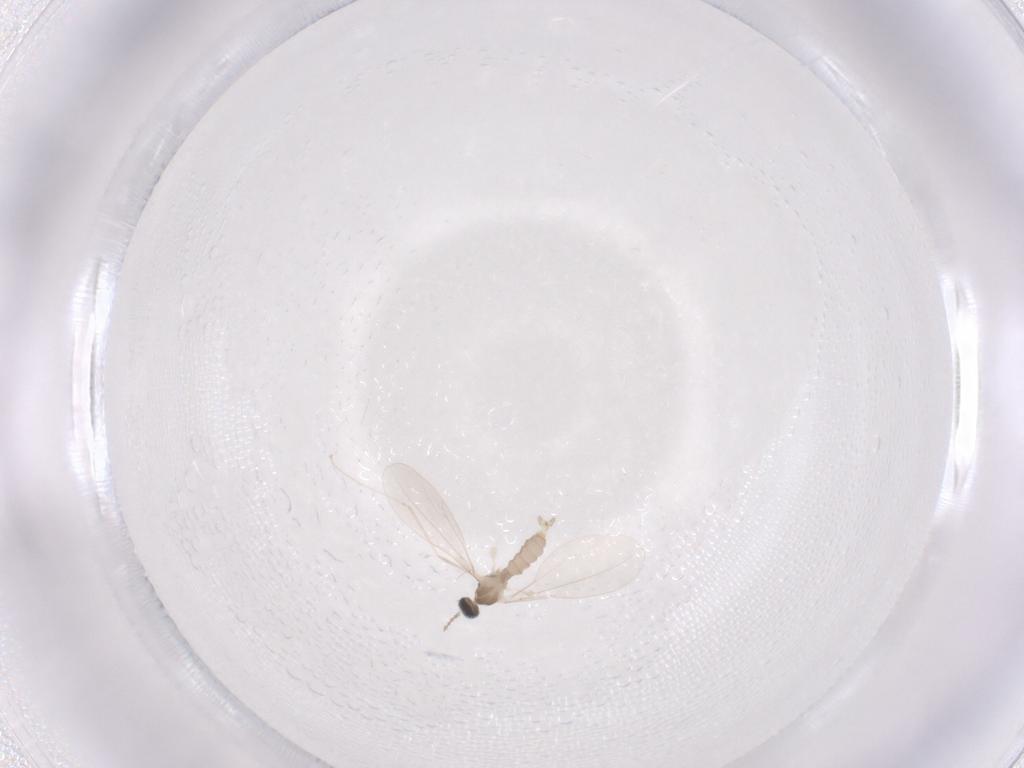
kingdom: Animalia
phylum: Arthropoda
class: Insecta
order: Diptera
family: Cecidomyiidae
